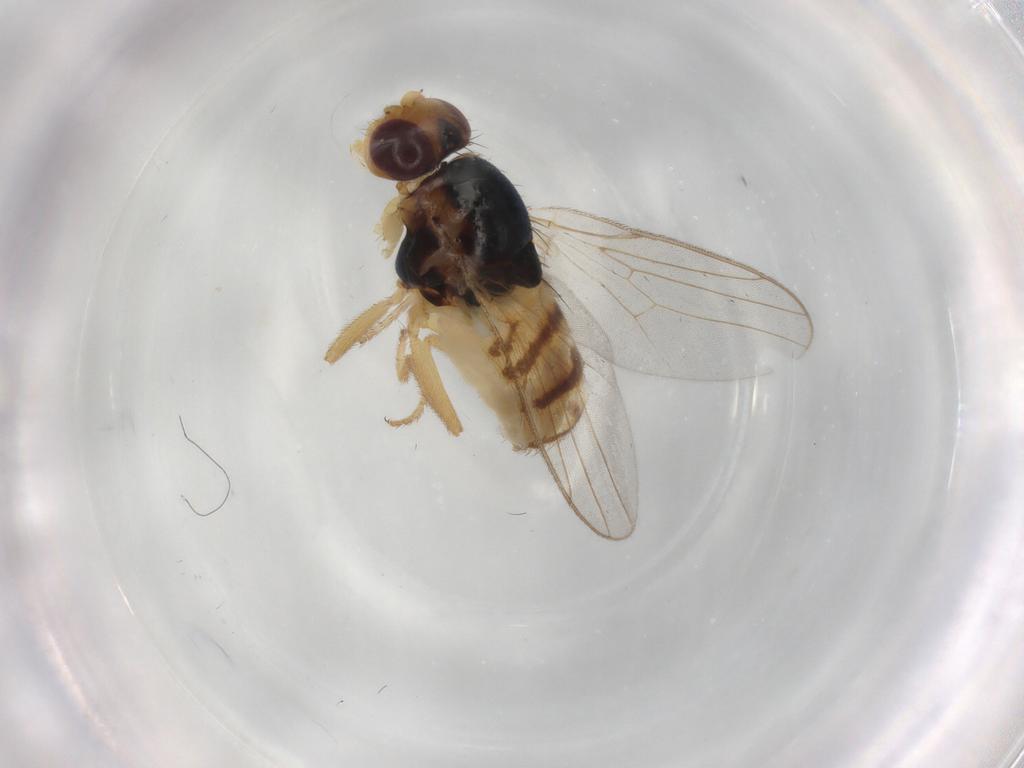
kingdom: Animalia
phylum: Arthropoda
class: Insecta
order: Diptera
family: Chloropidae
